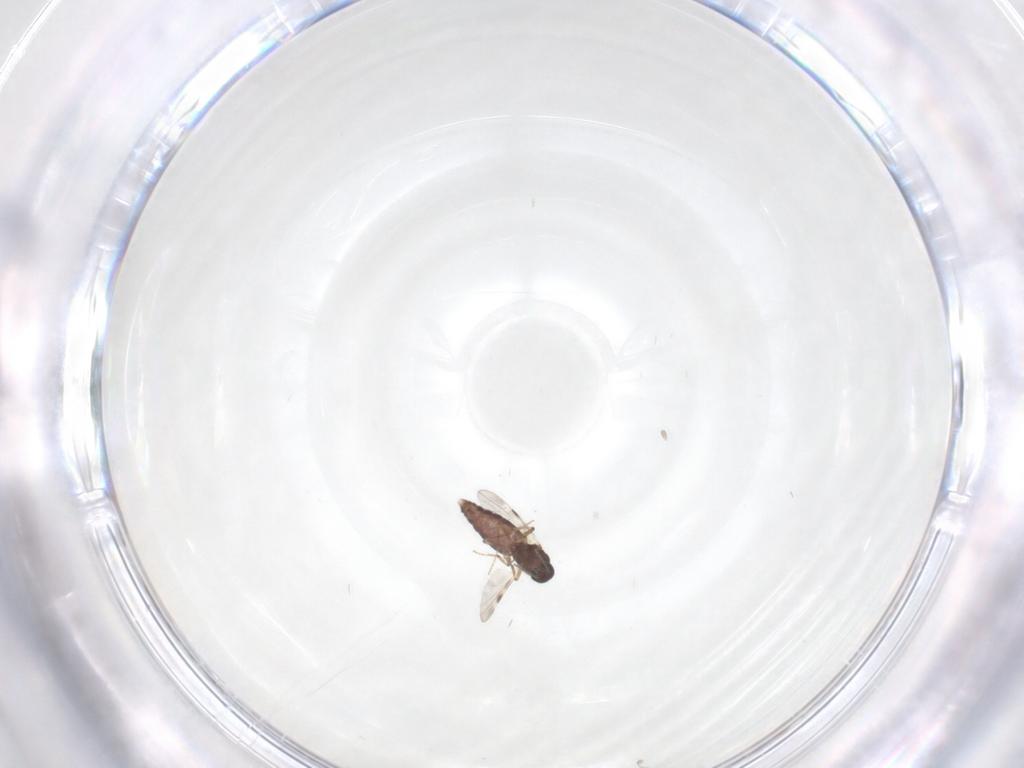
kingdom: Animalia
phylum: Arthropoda
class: Insecta
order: Diptera
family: Chironomidae
